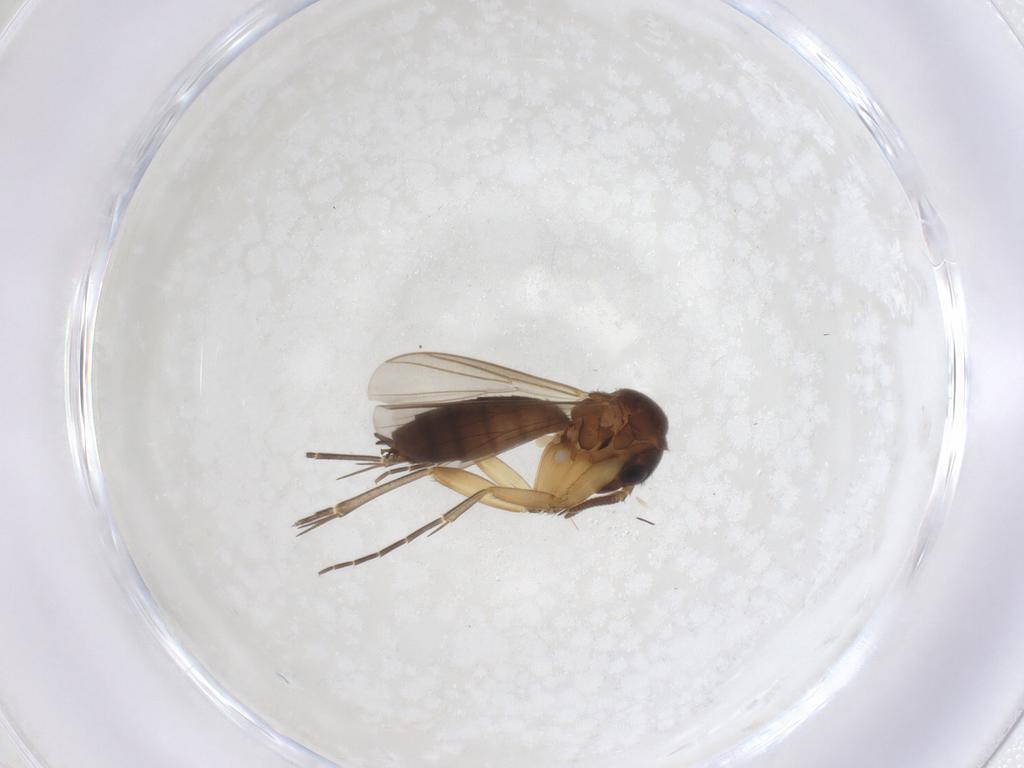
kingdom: Animalia
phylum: Arthropoda
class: Insecta
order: Diptera
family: Mycetophilidae
